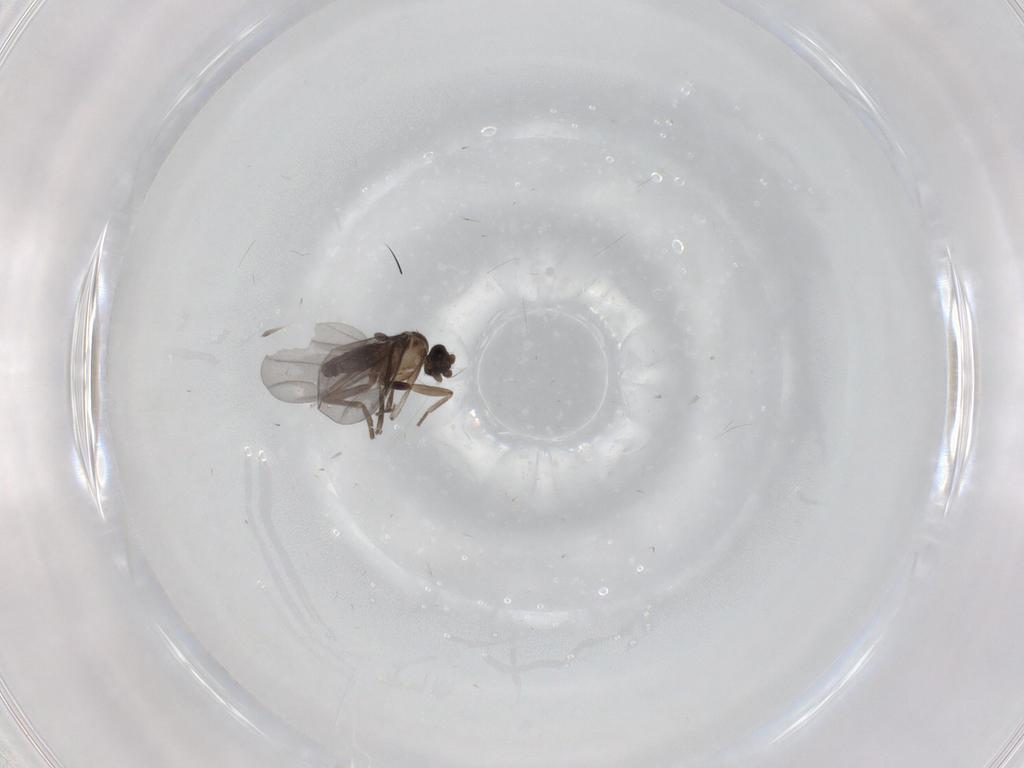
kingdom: Animalia
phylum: Arthropoda
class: Insecta
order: Diptera
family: Phoridae
